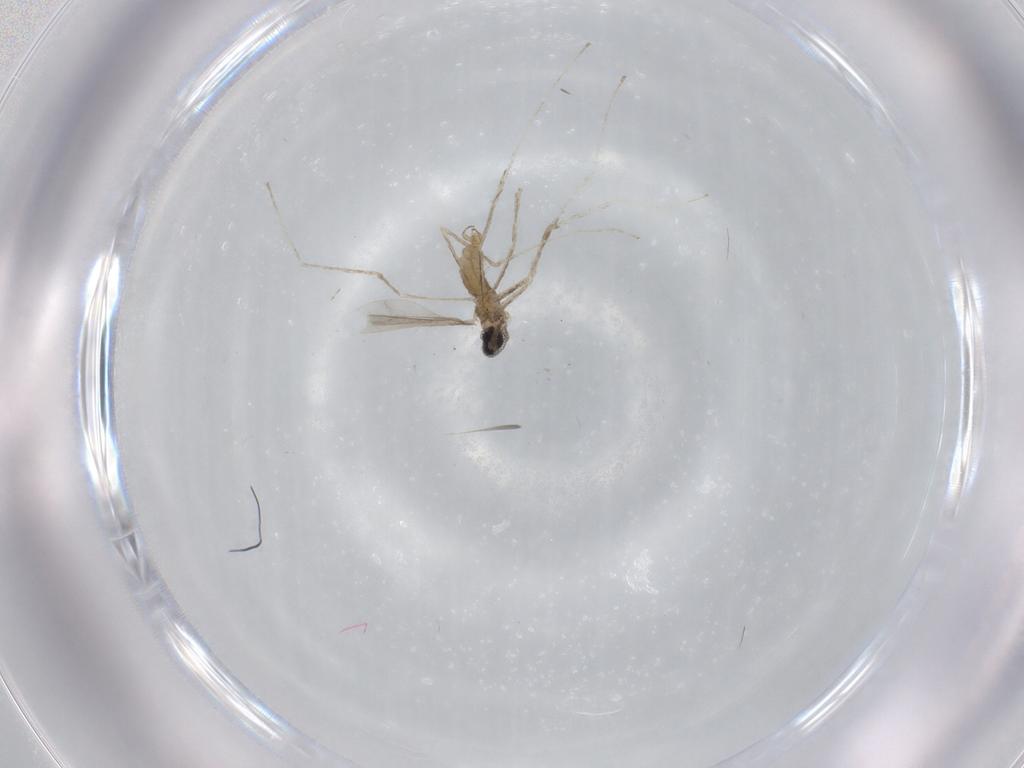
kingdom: Animalia
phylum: Arthropoda
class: Insecta
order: Diptera
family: Cecidomyiidae
